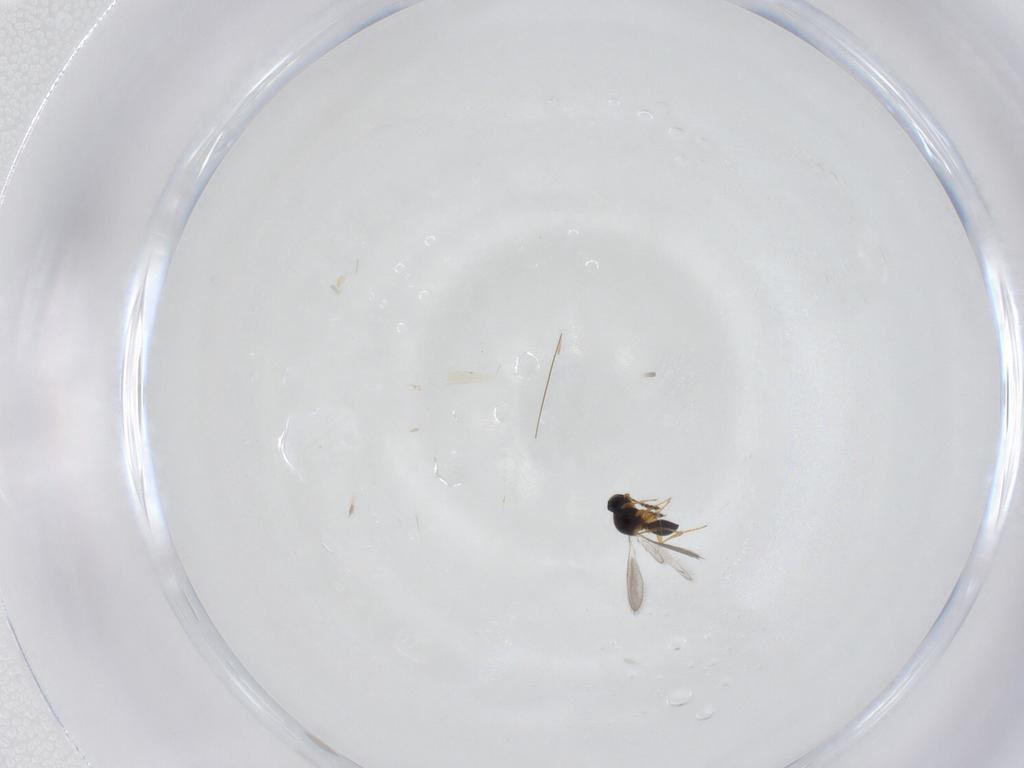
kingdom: Animalia
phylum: Arthropoda
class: Insecta
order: Hymenoptera
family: Platygastridae
